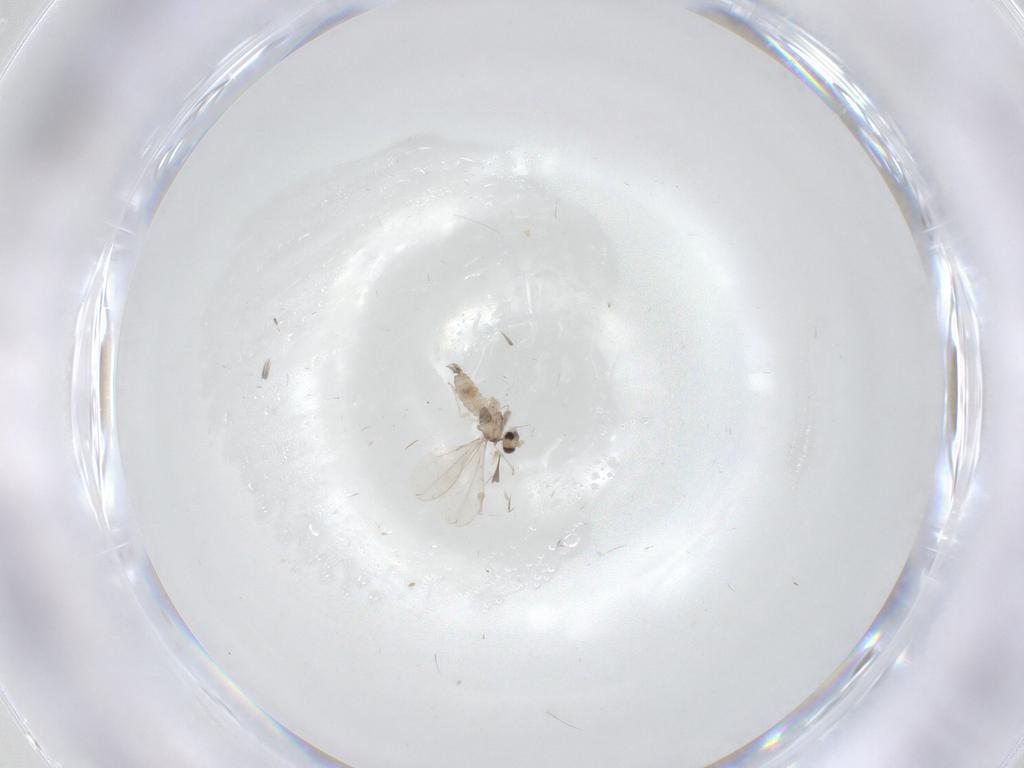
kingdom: Animalia
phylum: Arthropoda
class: Insecta
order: Diptera
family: Cecidomyiidae
